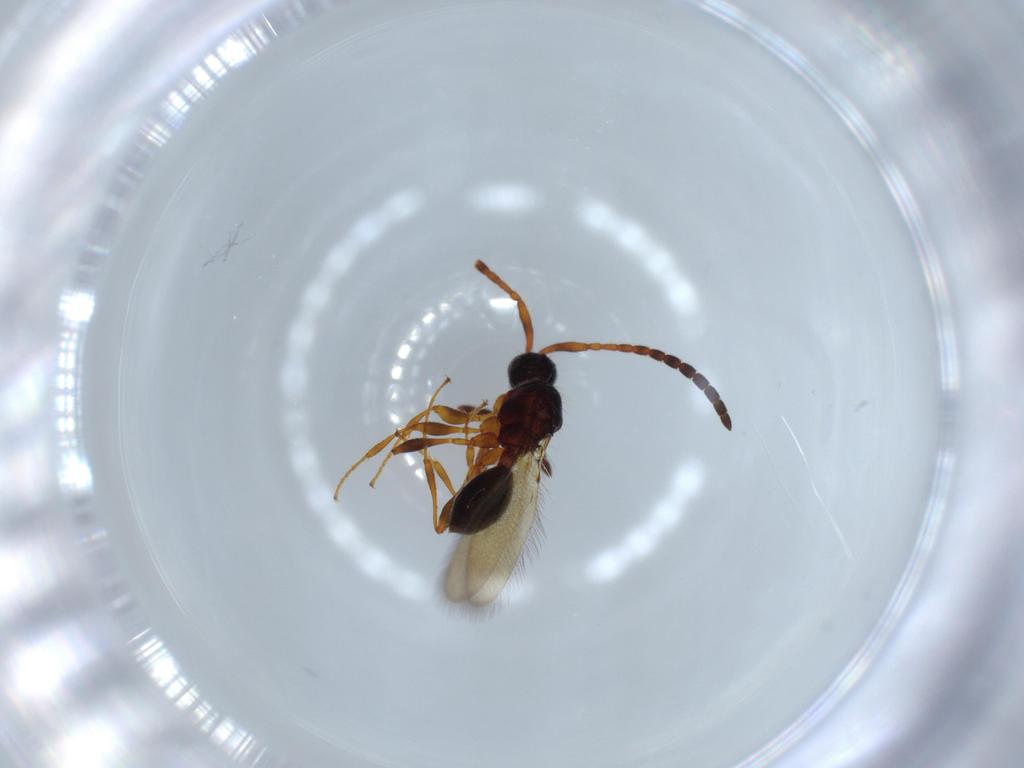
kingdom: Animalia
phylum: Arthropoda
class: Insecta
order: Hymenoptera
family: Diapriidae
